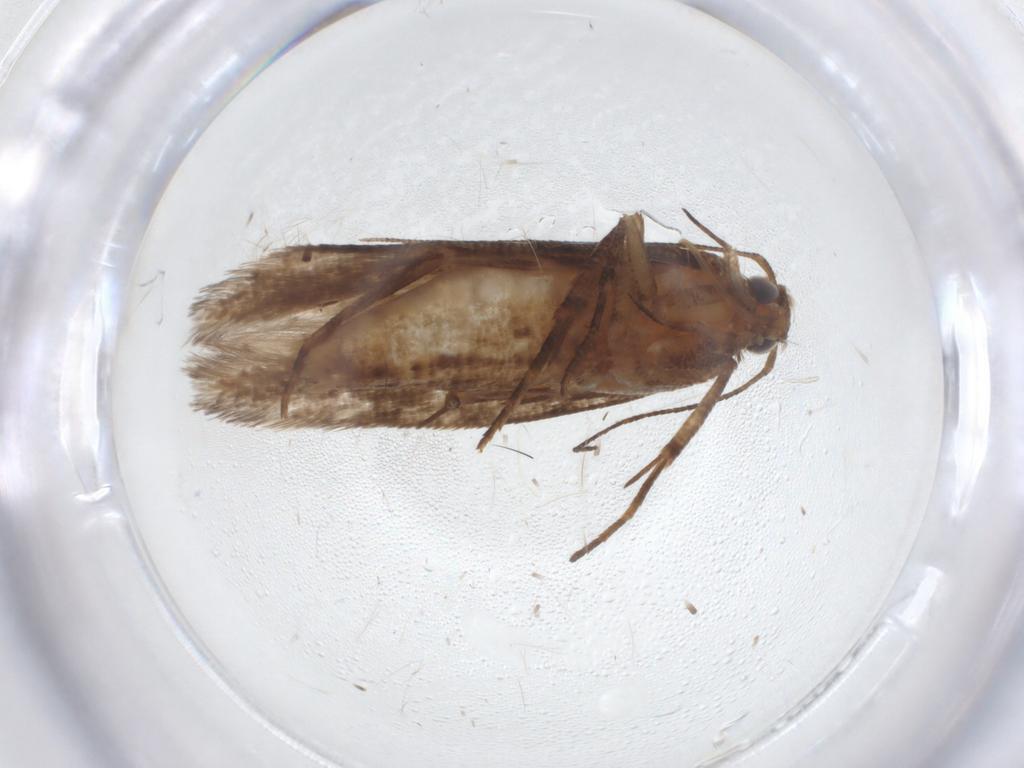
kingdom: Animalia
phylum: Arthropoda
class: Insecta
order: Lepidoptera
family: Gelechiidae
